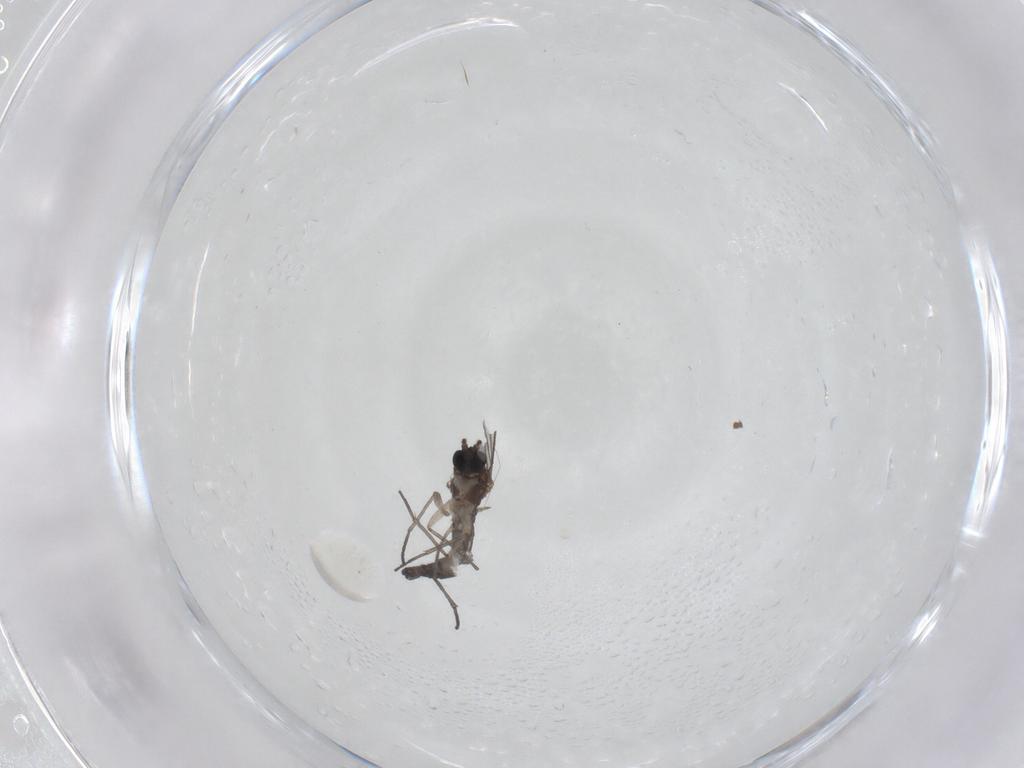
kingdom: Animalia
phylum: Arthropoda
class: Insecta
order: Diptera
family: Sciaridae
